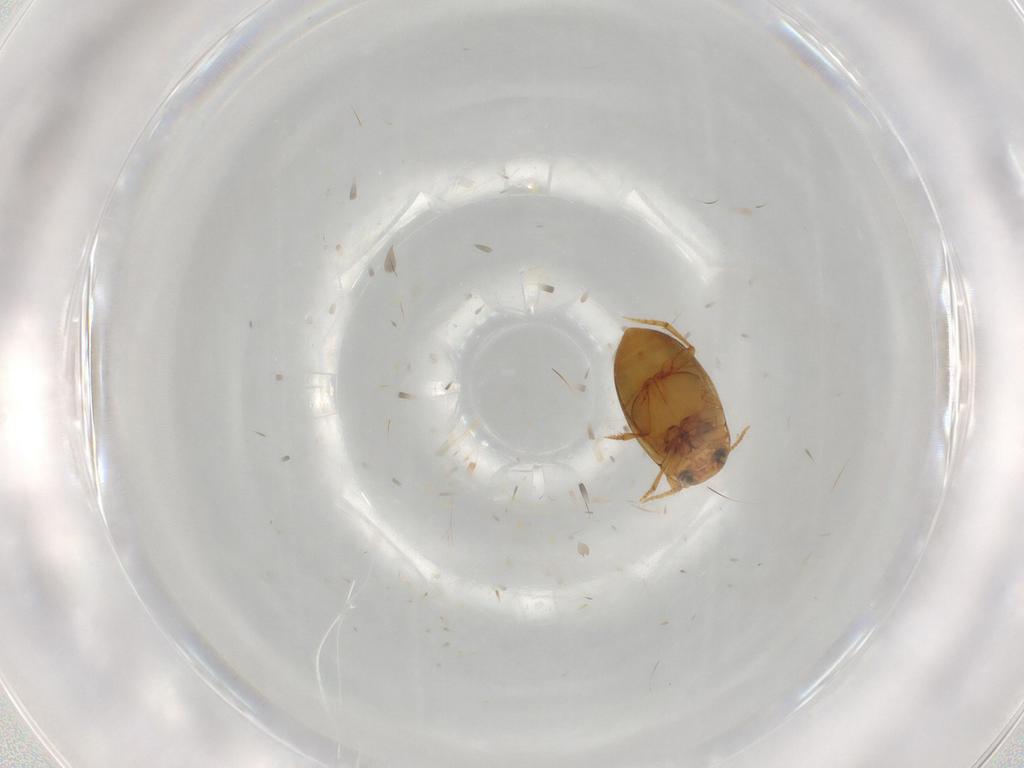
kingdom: Animalia
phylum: Arthropoda
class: Insecta
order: Coleoptera
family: Dytiscidae
